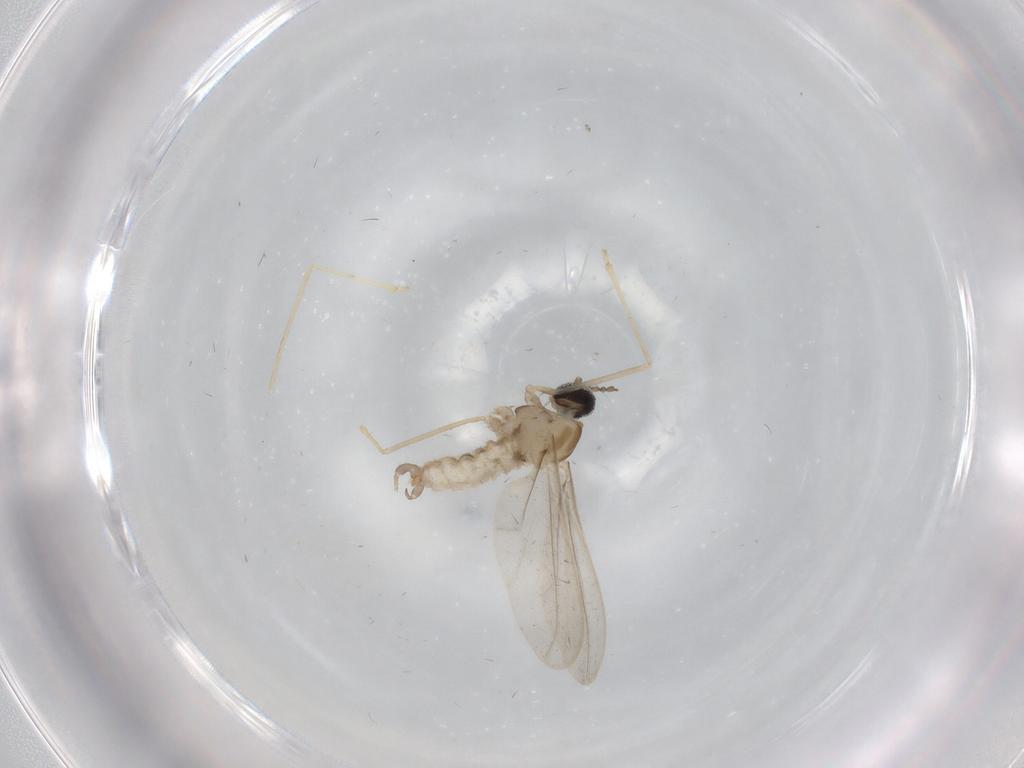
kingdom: Animalia
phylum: Arthropoda
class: Insecta
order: Diptera
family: Cecidomyiidae
